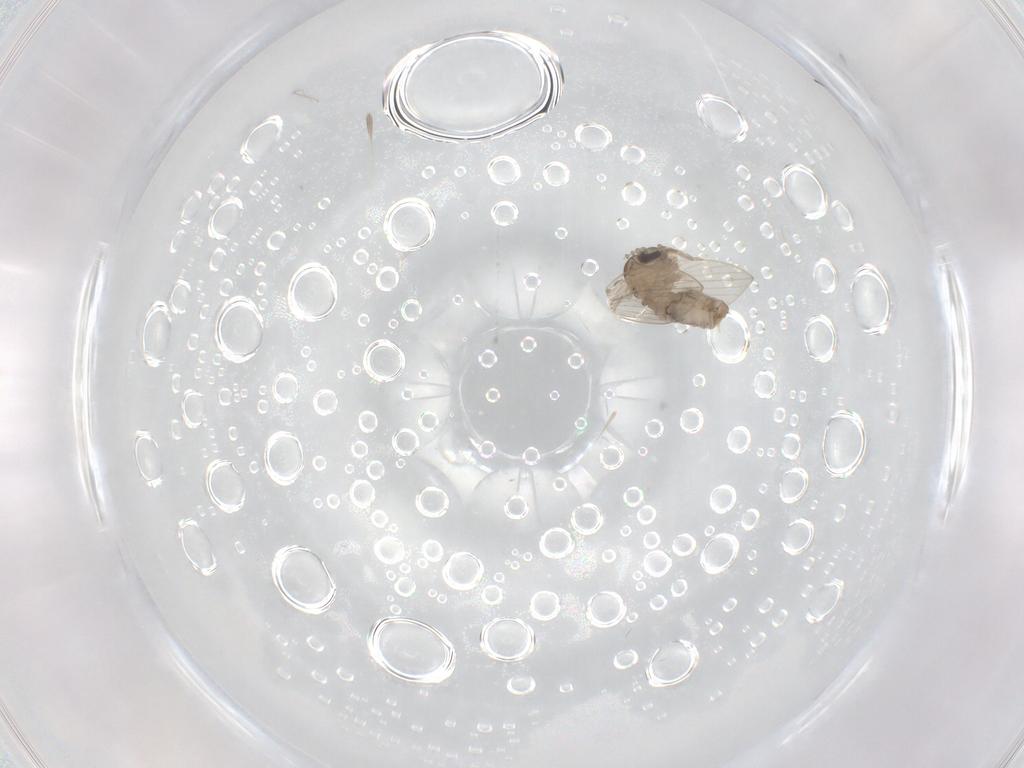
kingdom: Animalia
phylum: Arthropoda
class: Insecta
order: Diptera
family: Psychodidae
